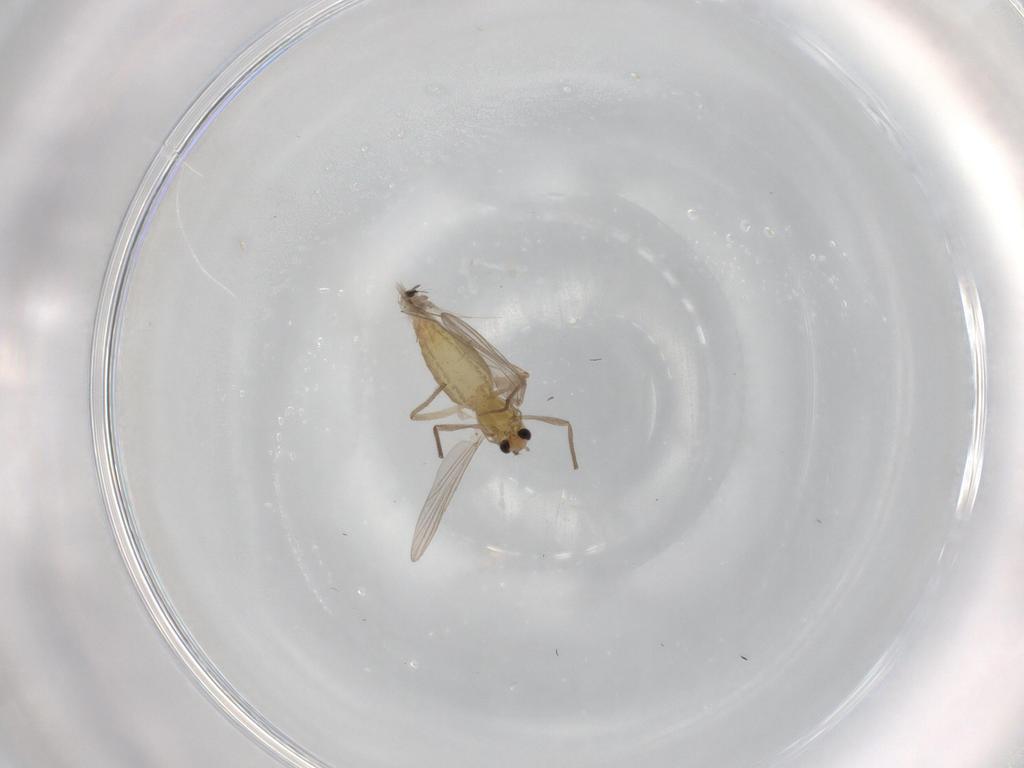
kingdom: Animalia
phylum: Arthropoda
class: Insecta
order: Diptera
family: Chironomidae
